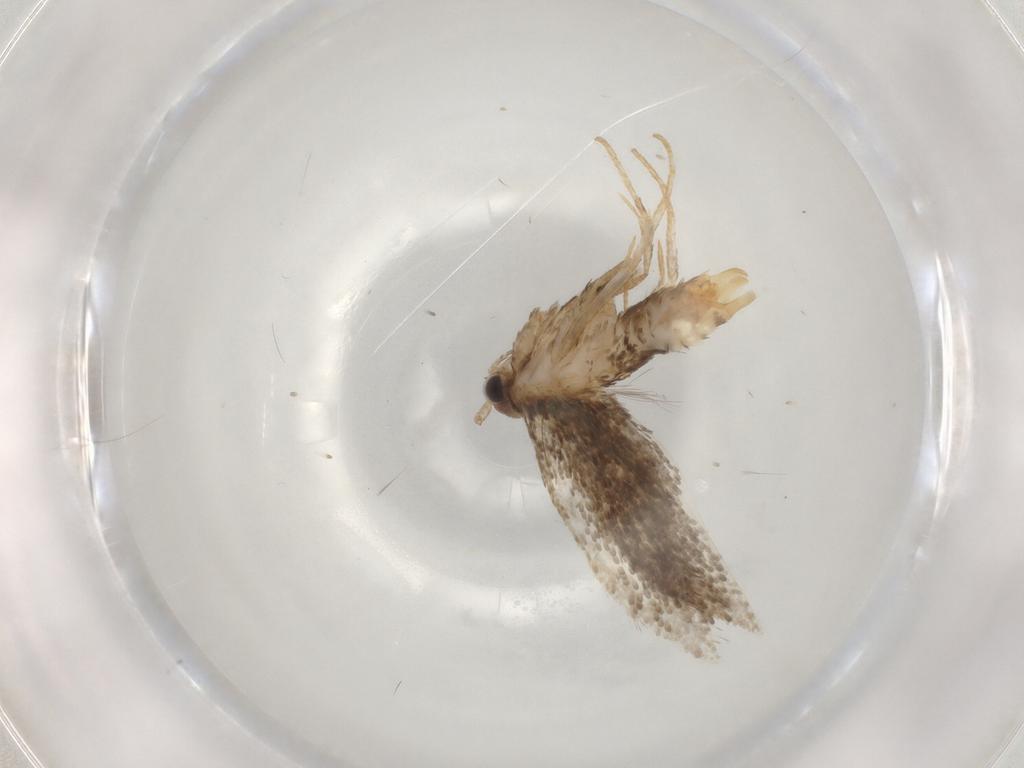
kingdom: Animalia
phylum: Arthropoda
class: Insecta
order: Lepidoptera
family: Tineidae
